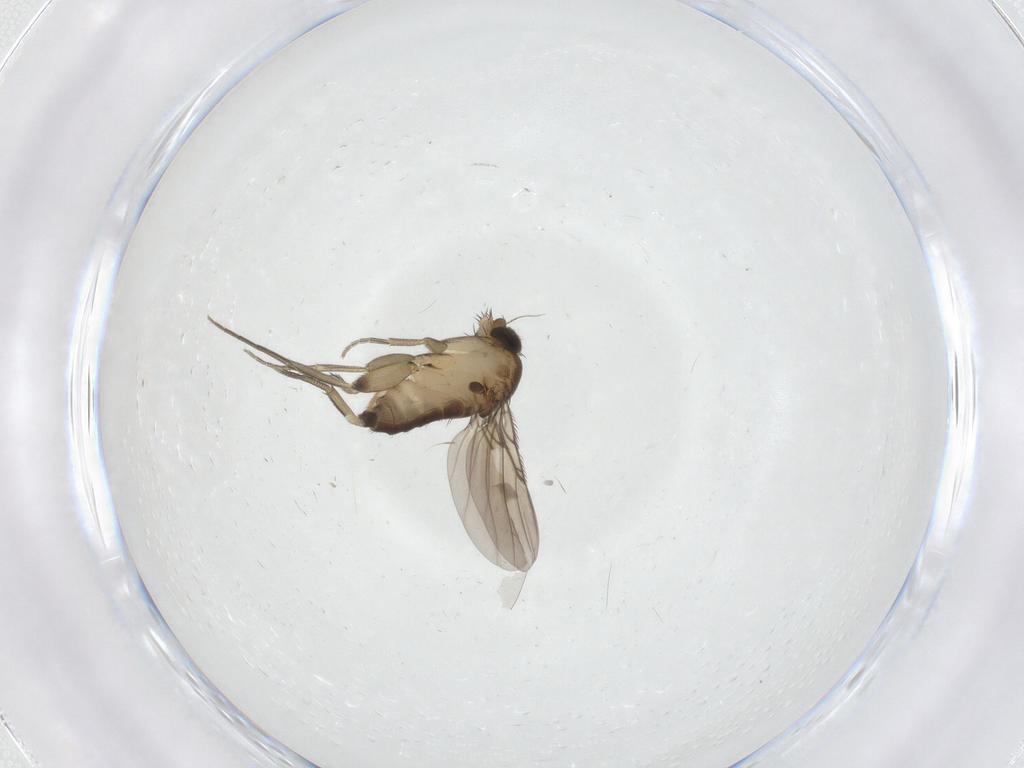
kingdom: Animalia
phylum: Arthropoda
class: Insecta
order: Diptera
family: Phoridae
